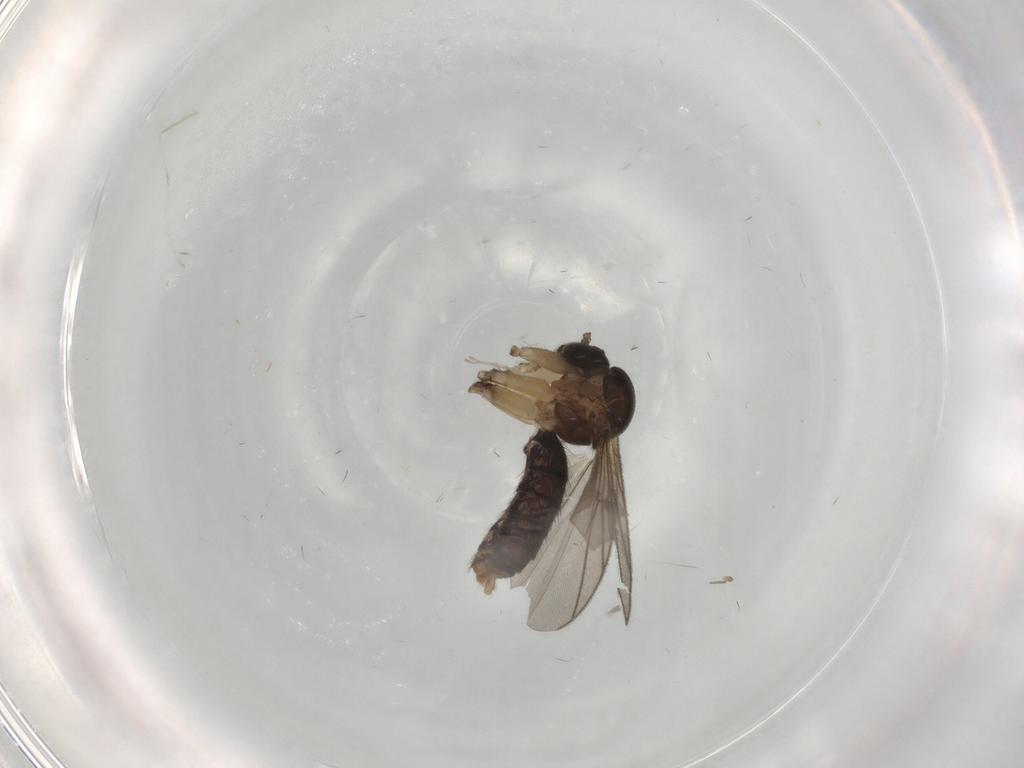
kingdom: Animalia
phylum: Arthropoda
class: Insecta
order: Diptera
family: Mycetophilidae
